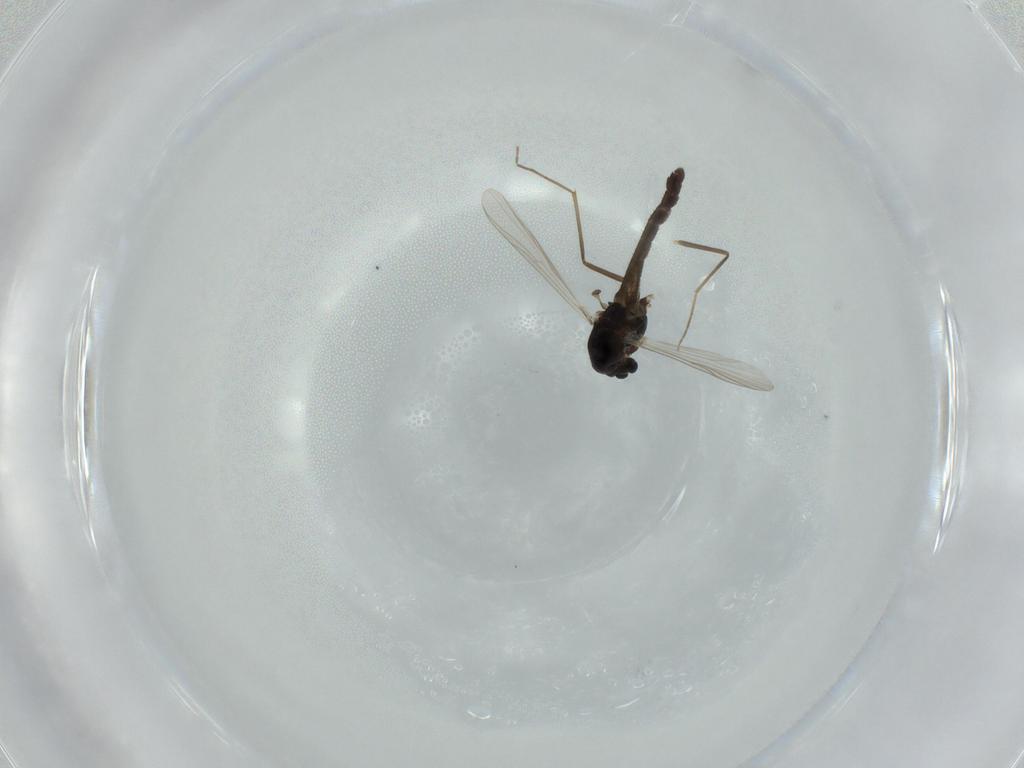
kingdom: Animalia
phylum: Arthropoda
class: Insecta
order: Diptera
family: Chironomidae
